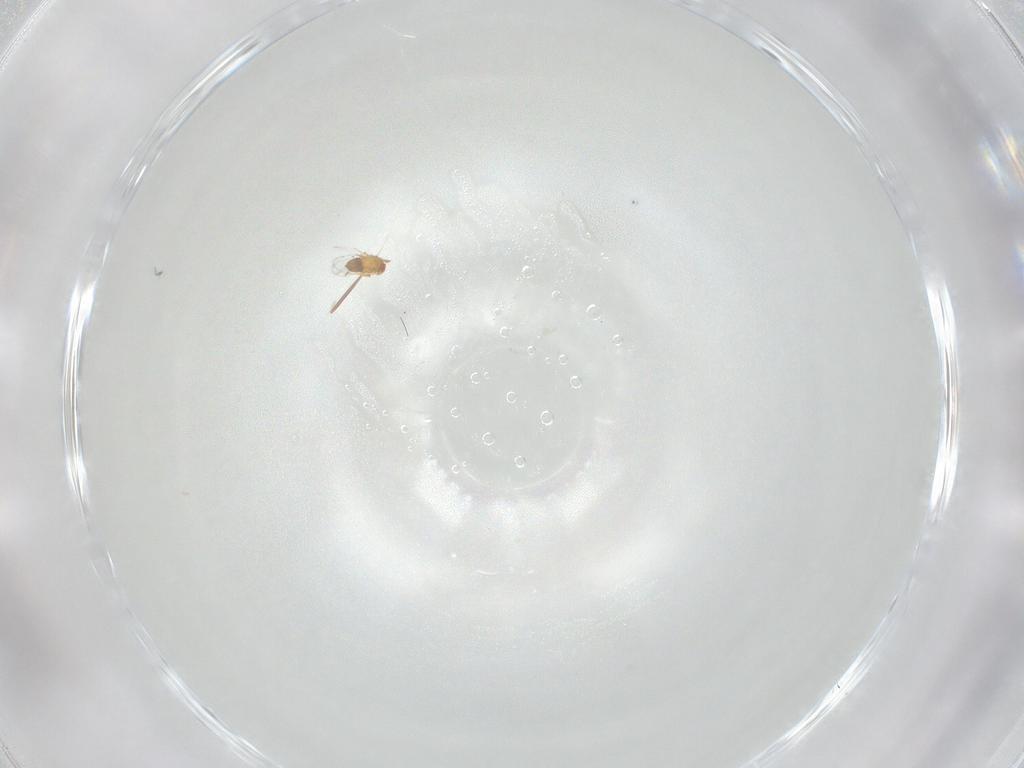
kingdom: Animalia
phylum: Arthropoda
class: Insecta
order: Hymenoptera
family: Trichogrammatidae
